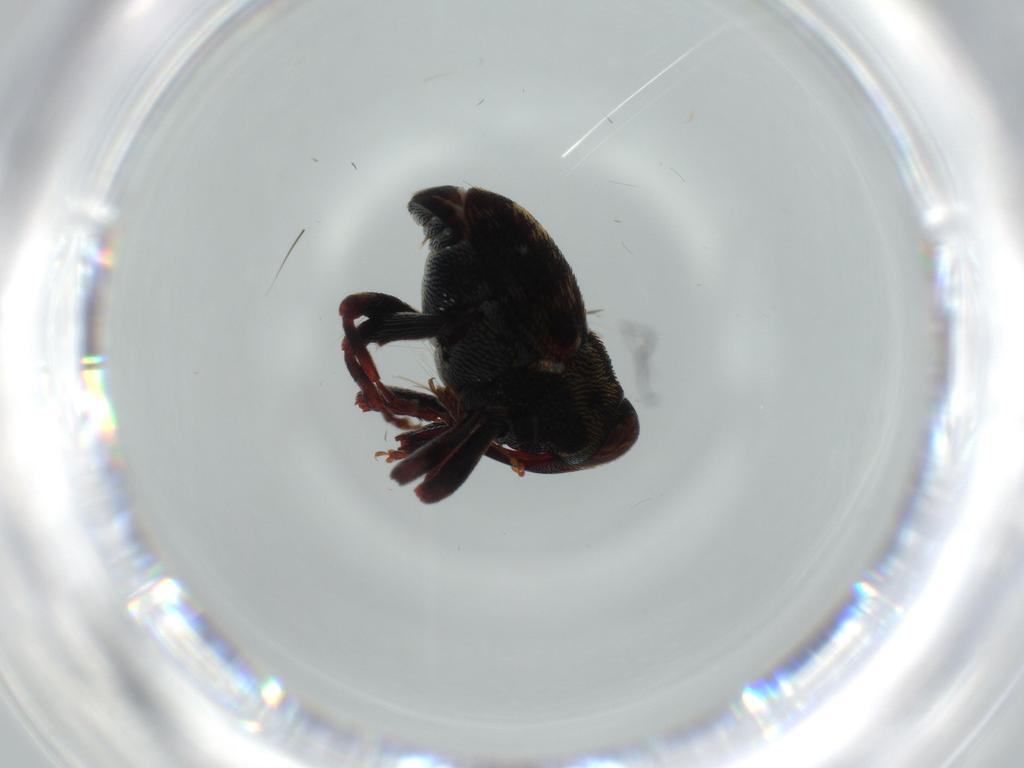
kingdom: Animalia
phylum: Arthropoda
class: Insecta
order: Coleoptera
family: Curculionidae
